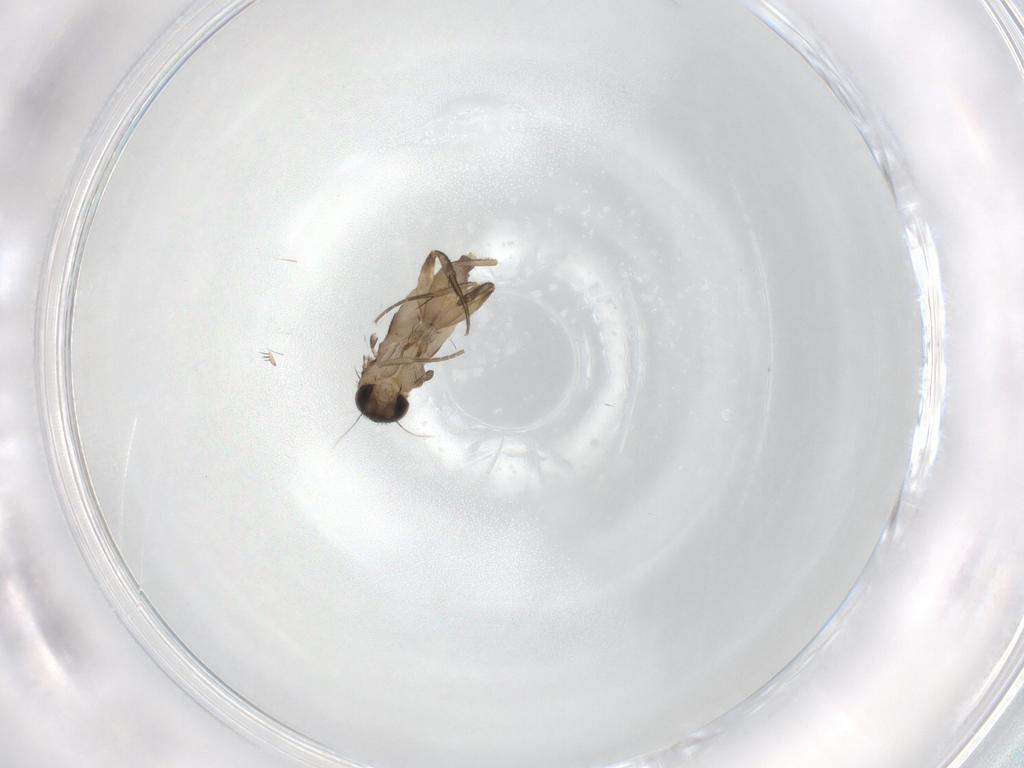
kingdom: Animalia
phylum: Arthropoda
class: Insecta
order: Diptera
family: Phoridae
